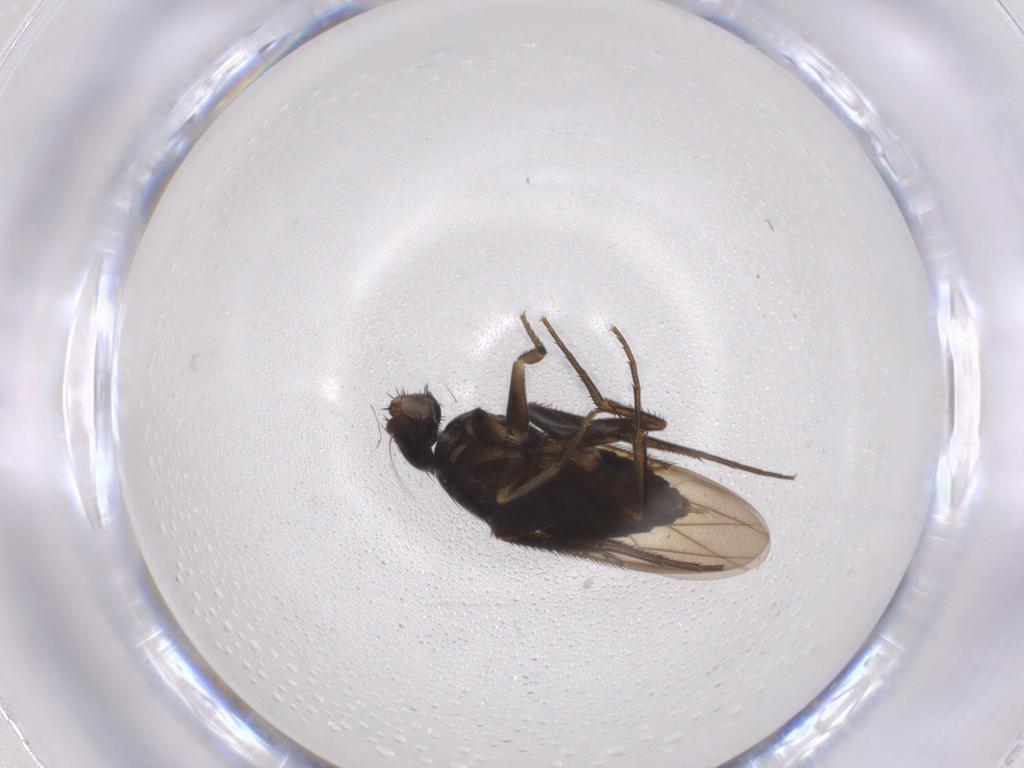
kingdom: Animalia
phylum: Arthropoda
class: Insecta
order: Diptera
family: Phoridae
